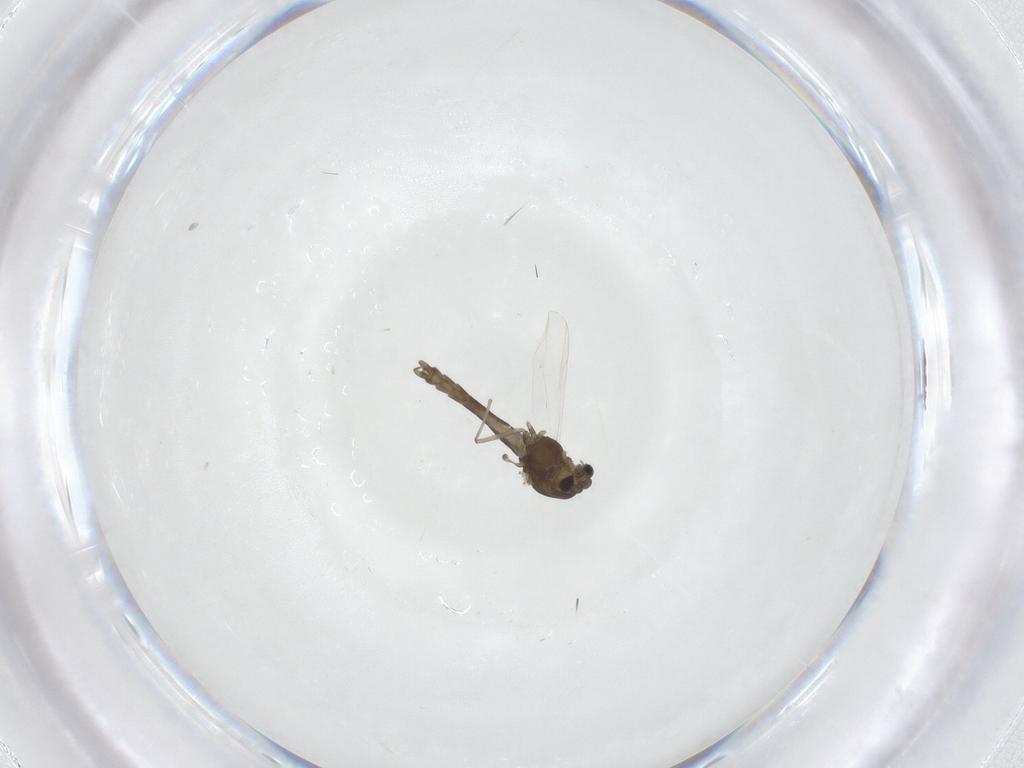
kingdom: Animalia
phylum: Arthropoda
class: Insecta
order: Diptera
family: Chironomidae
